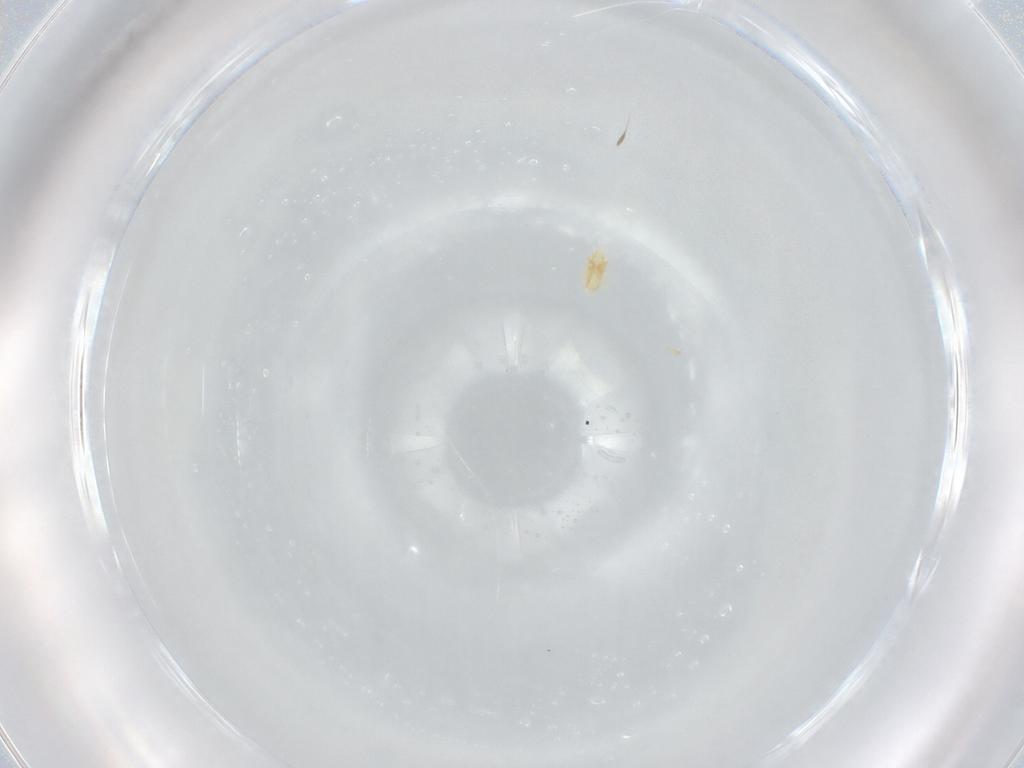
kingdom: Animalia
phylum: Arthropoda
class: Arachnida
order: Trombidiformes
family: Eupodidae
